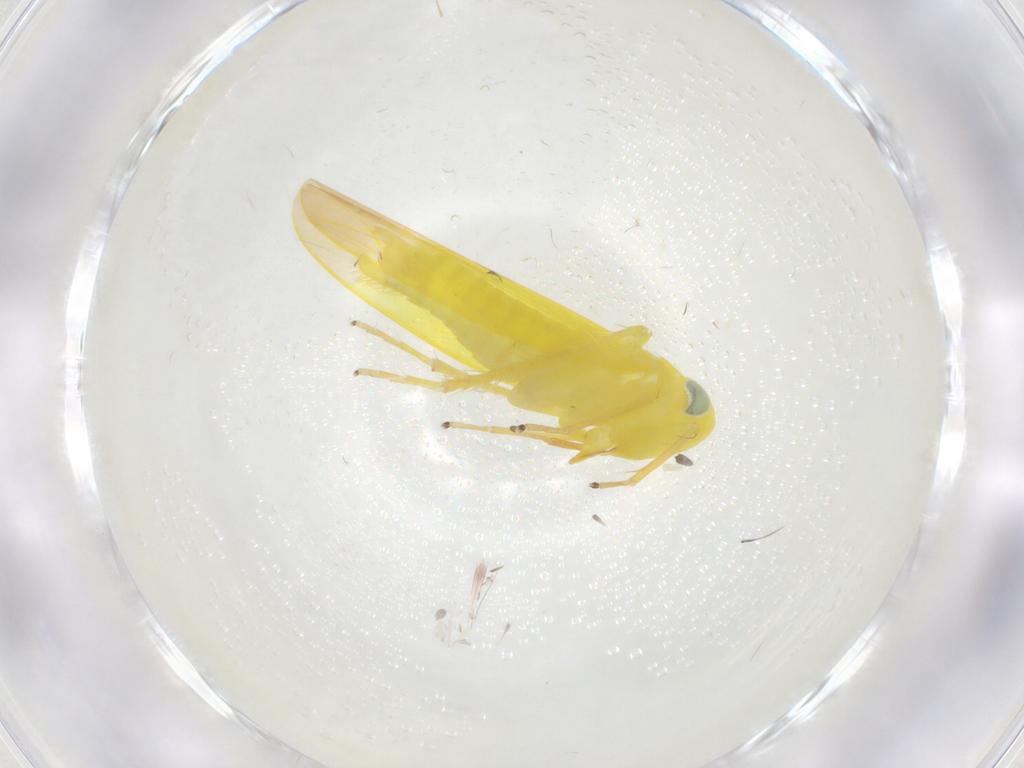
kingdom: Animalia
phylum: Arthropoda
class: Insecta
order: Hemiptera
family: Cicadellidae
